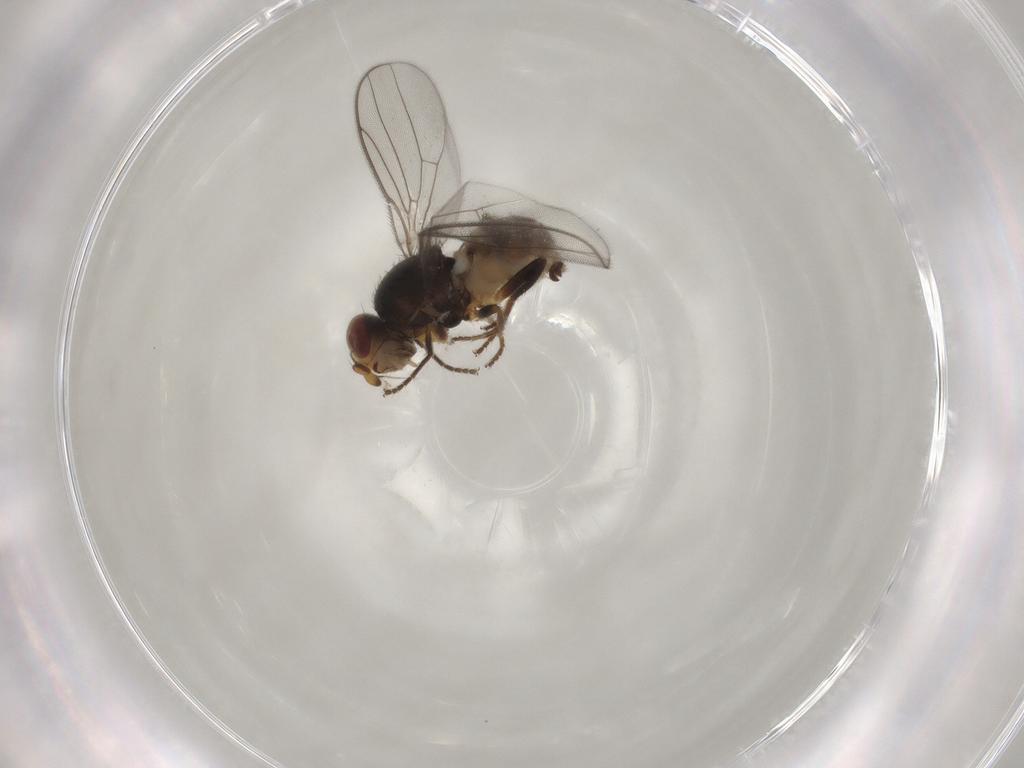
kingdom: Animalia
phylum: Arthropoda
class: Insecta
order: Diptera
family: Chloropidae
